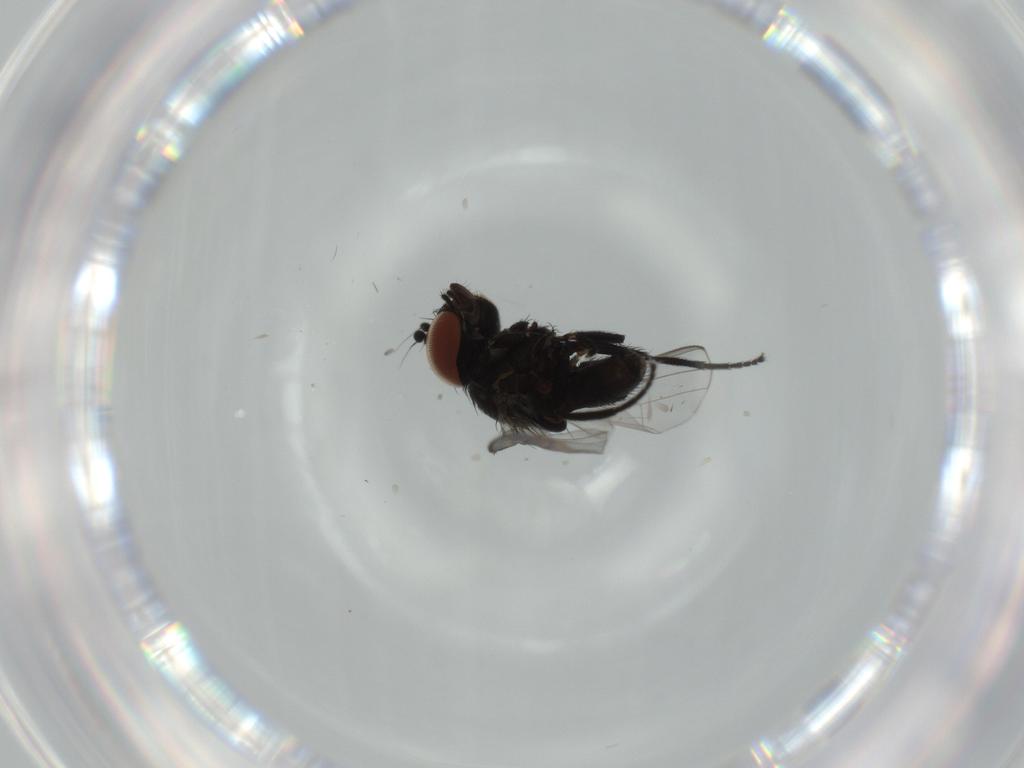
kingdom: Animalia
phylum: Arthropoda
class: Insecta
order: Diptera
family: Milichiidae
